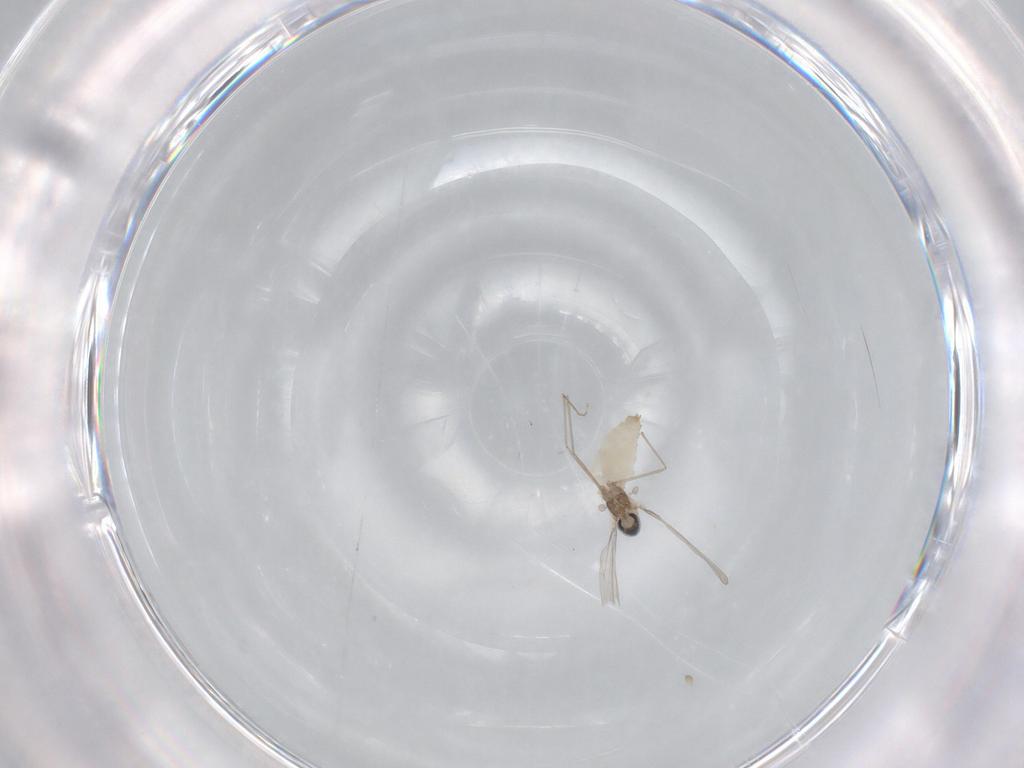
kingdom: Animalia
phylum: Arthropoda
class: Insecta
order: Diptera
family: Cecidomyiidae
